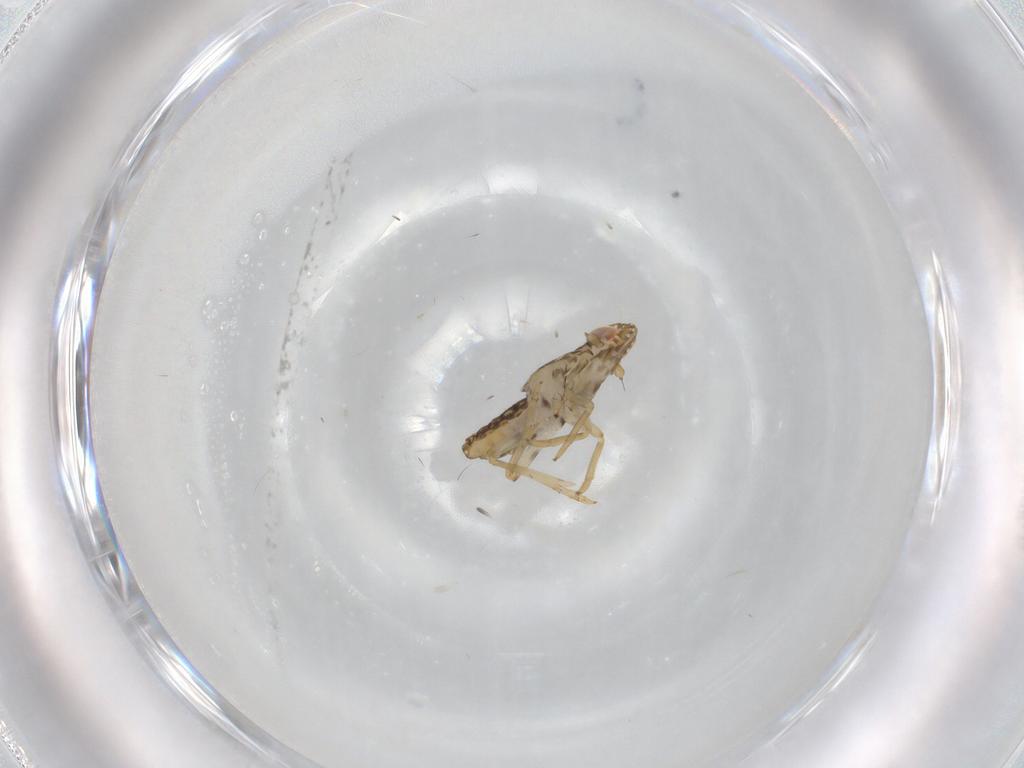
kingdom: Animalia
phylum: Arthropoda
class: Insecta
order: Hemiptera
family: Delphacidae
